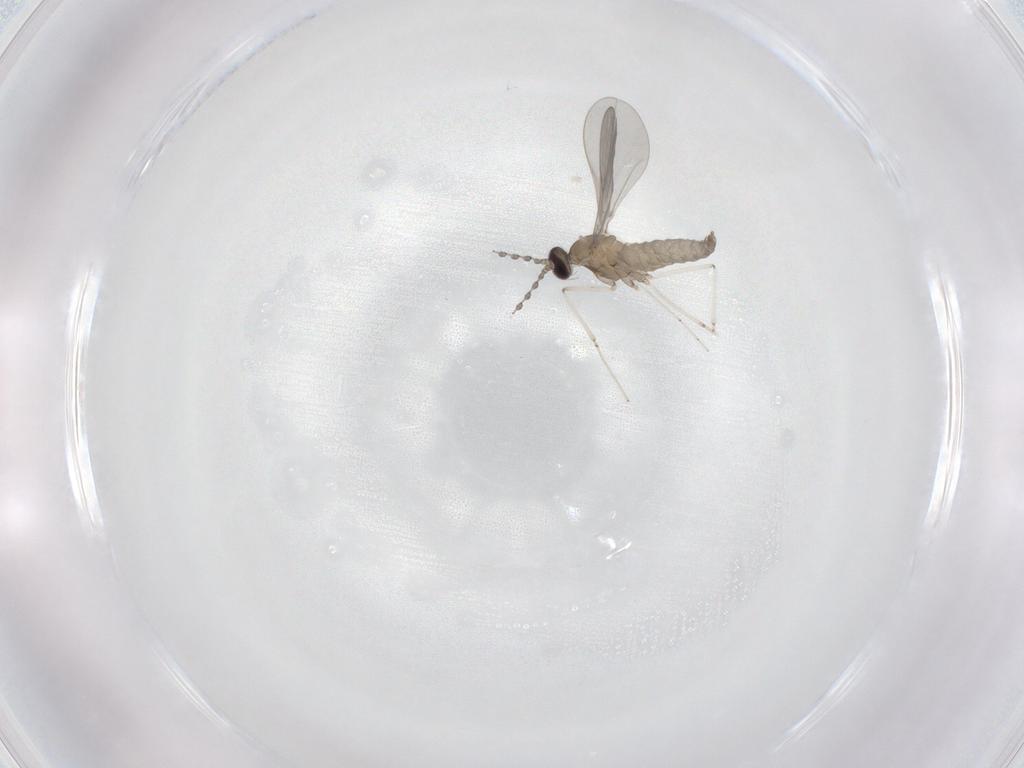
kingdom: Animalia
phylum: Arthropoda
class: Insecta
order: Diptera
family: Cecidomyiidae
